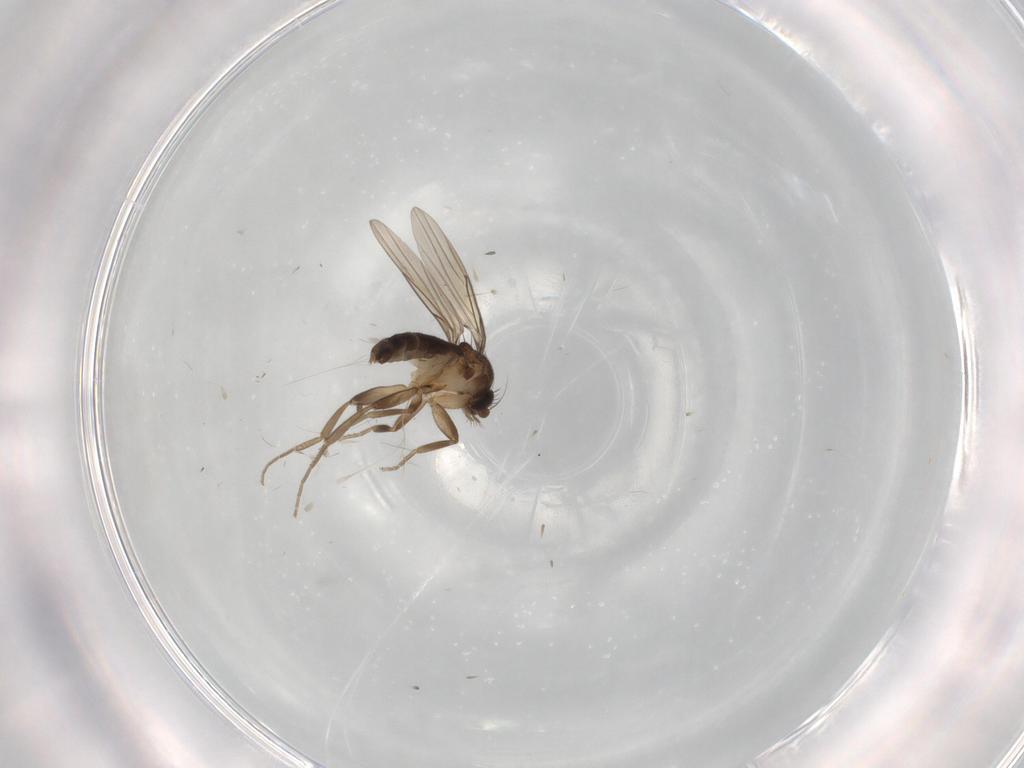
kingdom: Animalia
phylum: Arthropoda
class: Insecta
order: Diptera
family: Phoridae
